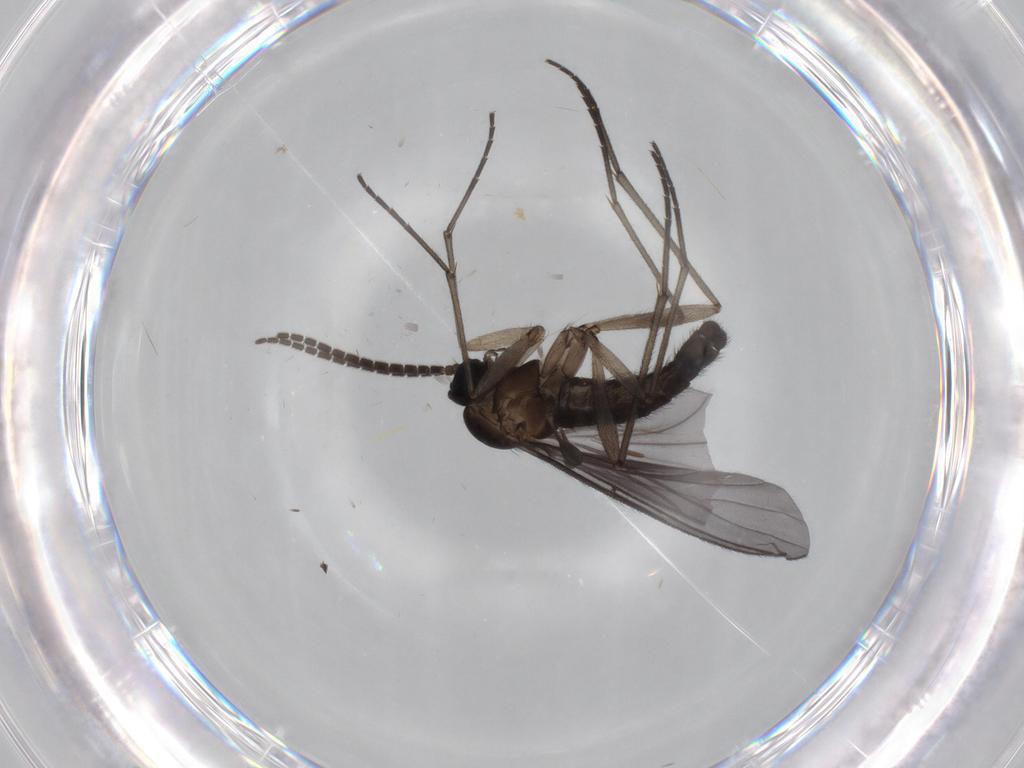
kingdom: Animalia
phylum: Arthropoda
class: Insecta
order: Diptera
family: Sciaridae
